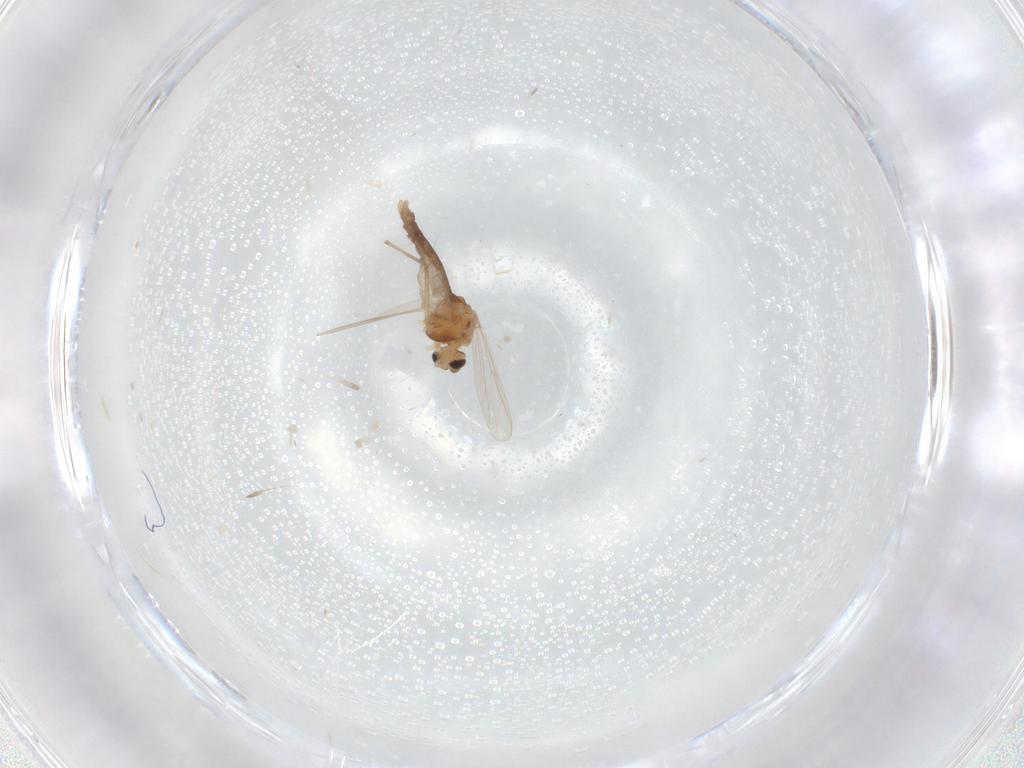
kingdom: Animalia
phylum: Arthropoda
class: Insecta
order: Diptera
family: Chironomidae
